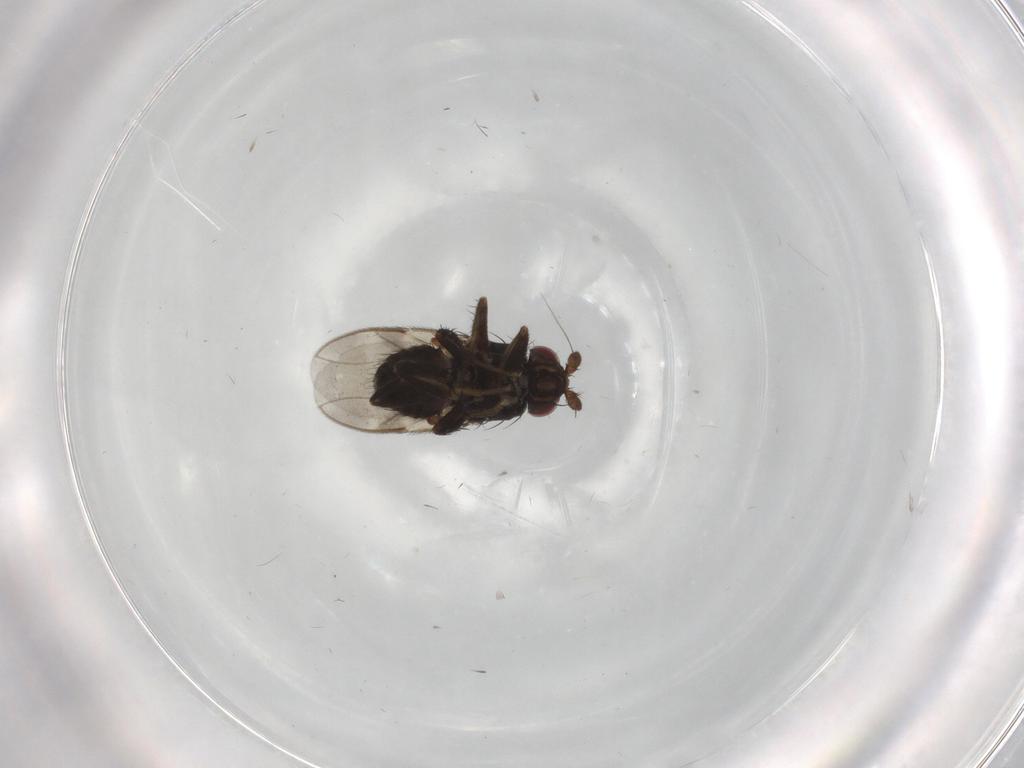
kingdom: Animalia
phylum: Arthropoda
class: Insecta
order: Diptera
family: Sphaeroceridae
